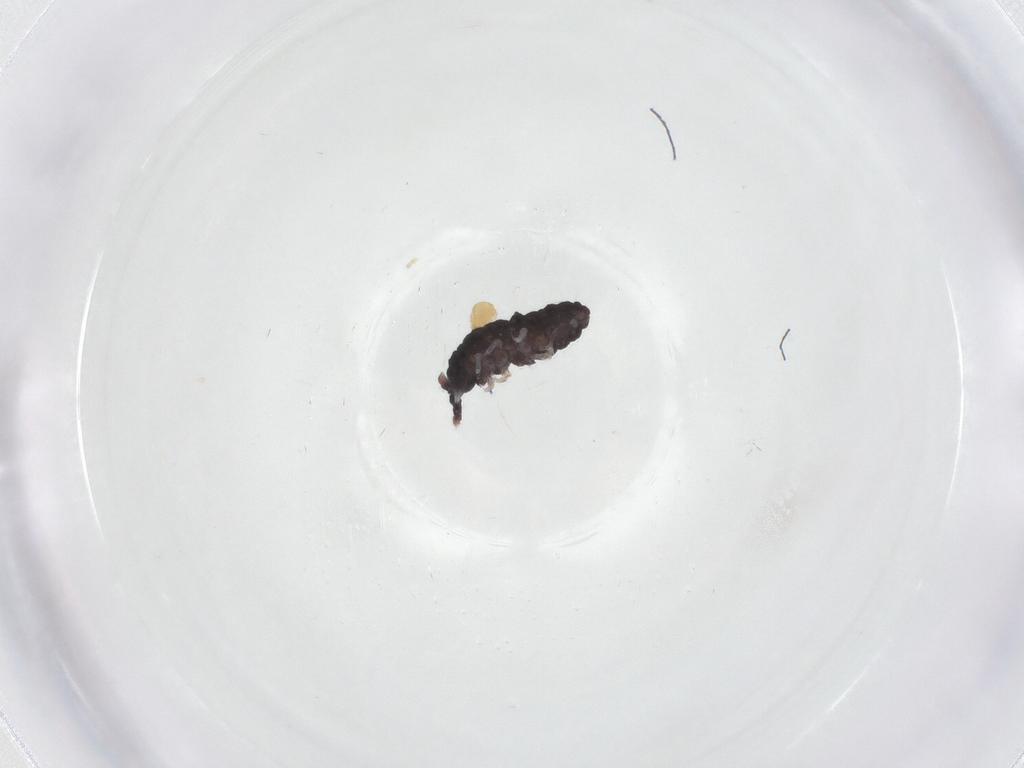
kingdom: Animalia
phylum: Arthropoda
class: Collembola
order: Poduromorpha
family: Neanuridae
